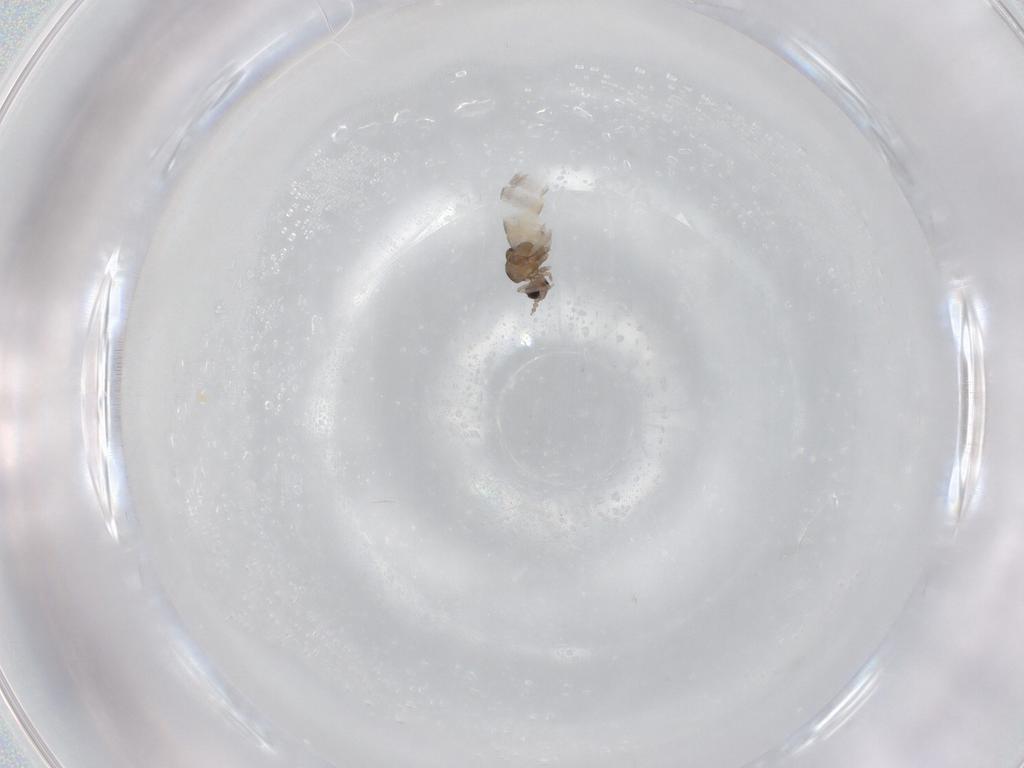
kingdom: Animalia
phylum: Arthropoda
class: Insecta
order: Diptera
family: Cecidomyiidae
